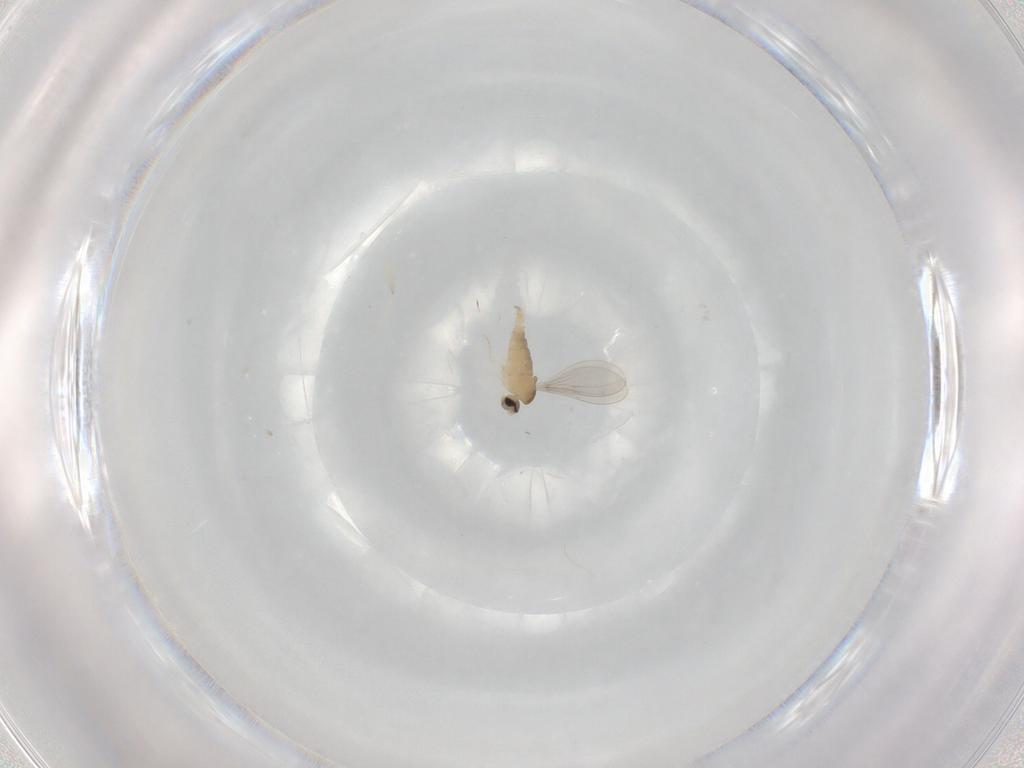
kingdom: Animalia
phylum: Arthropoda
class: Insecta
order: Diptera
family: Cecidomyiidae
